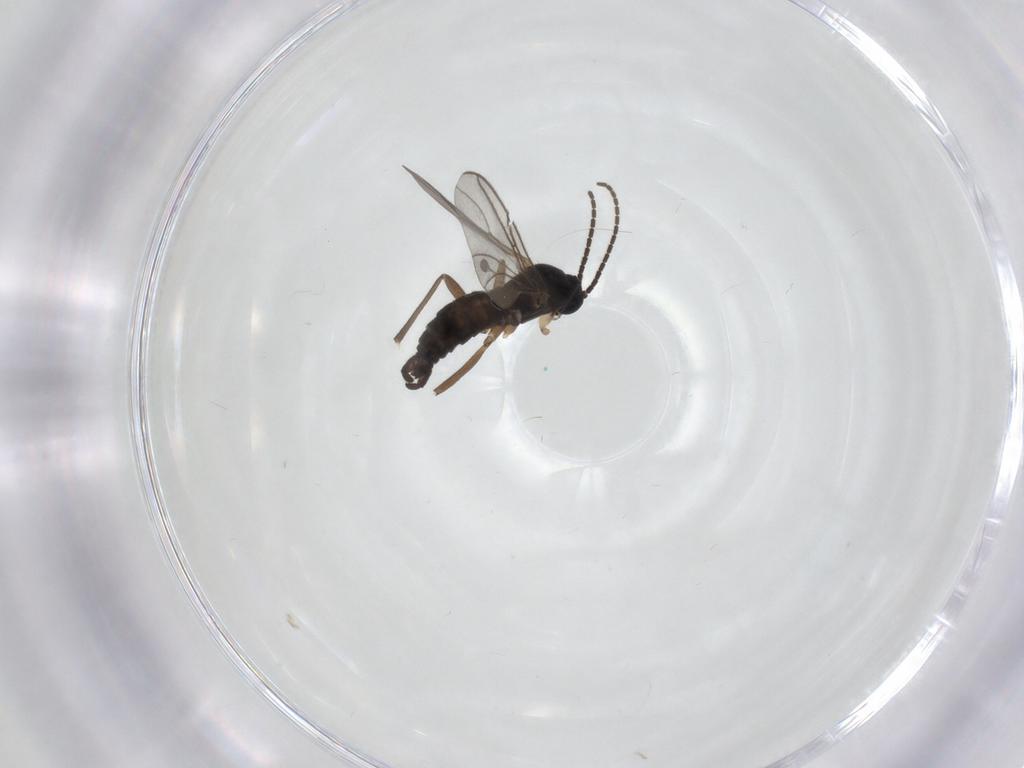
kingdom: Animalia
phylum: Arthropoda
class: Insecta
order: Diptera
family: Sciaridae
